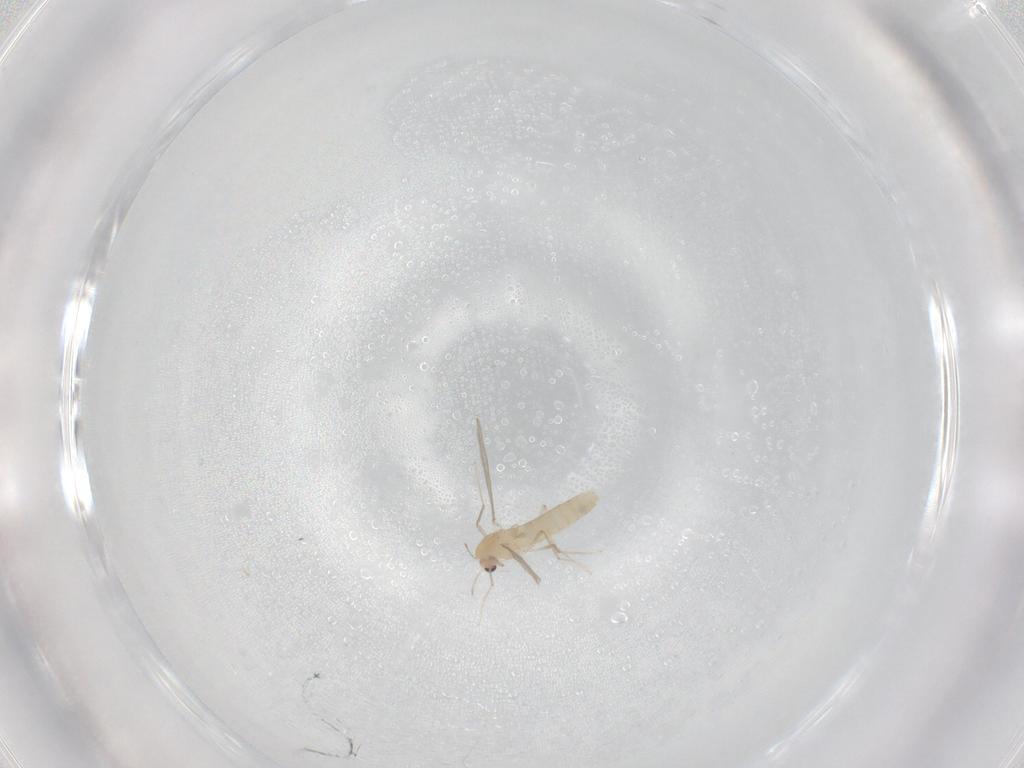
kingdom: Animalia
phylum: Arthropoda
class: Insecta
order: Diptera
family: Chironomidae
